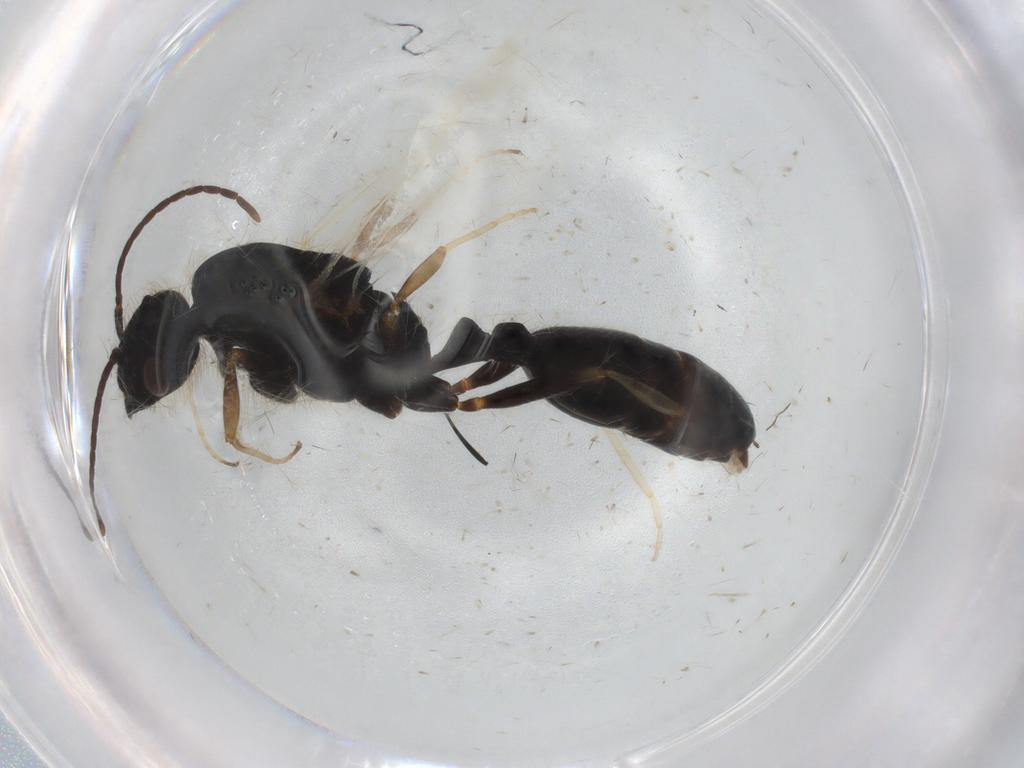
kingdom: Animalia
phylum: Arthropoda
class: Insecta
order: Hymenoptera
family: Formicidae
